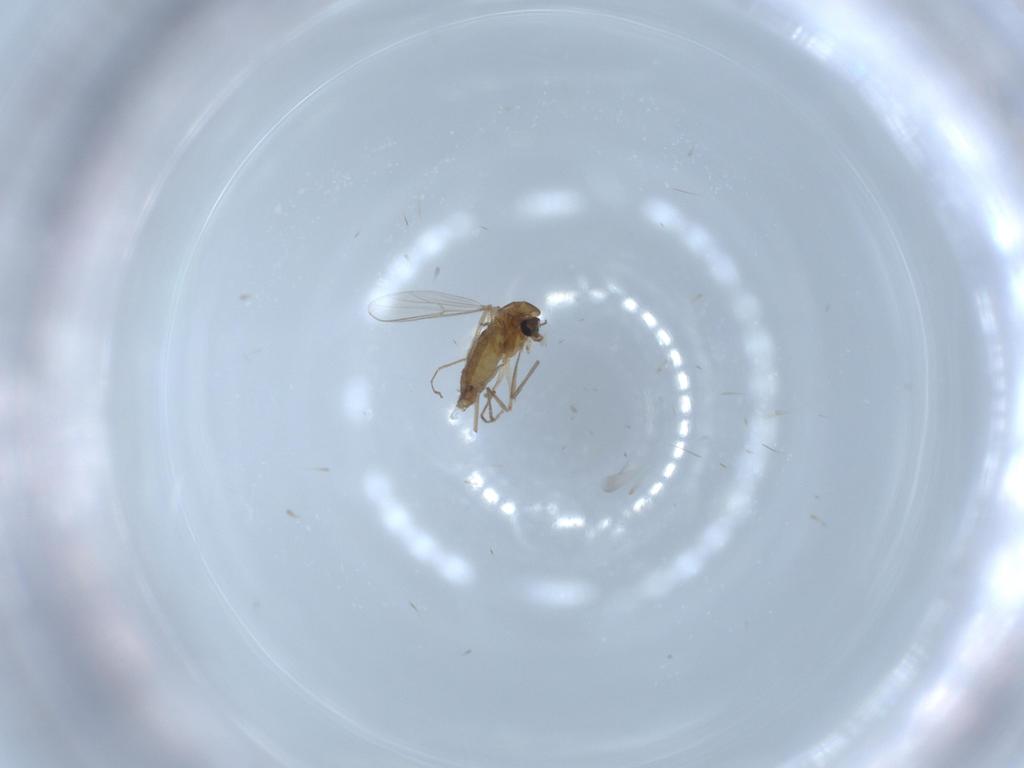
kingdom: Animalia
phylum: Arthropoda
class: Insecta
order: Diptera
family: Chironomidae
